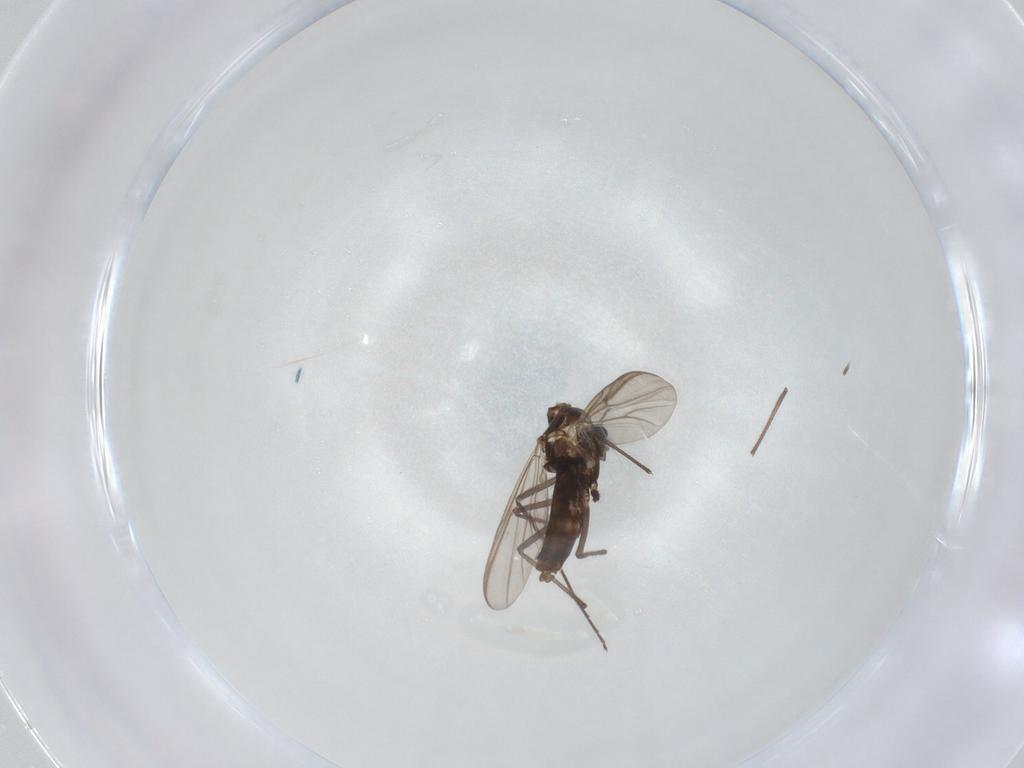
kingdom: Animalia
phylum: Arthropoda
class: Insecta
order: Diptera
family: Chironomidae
